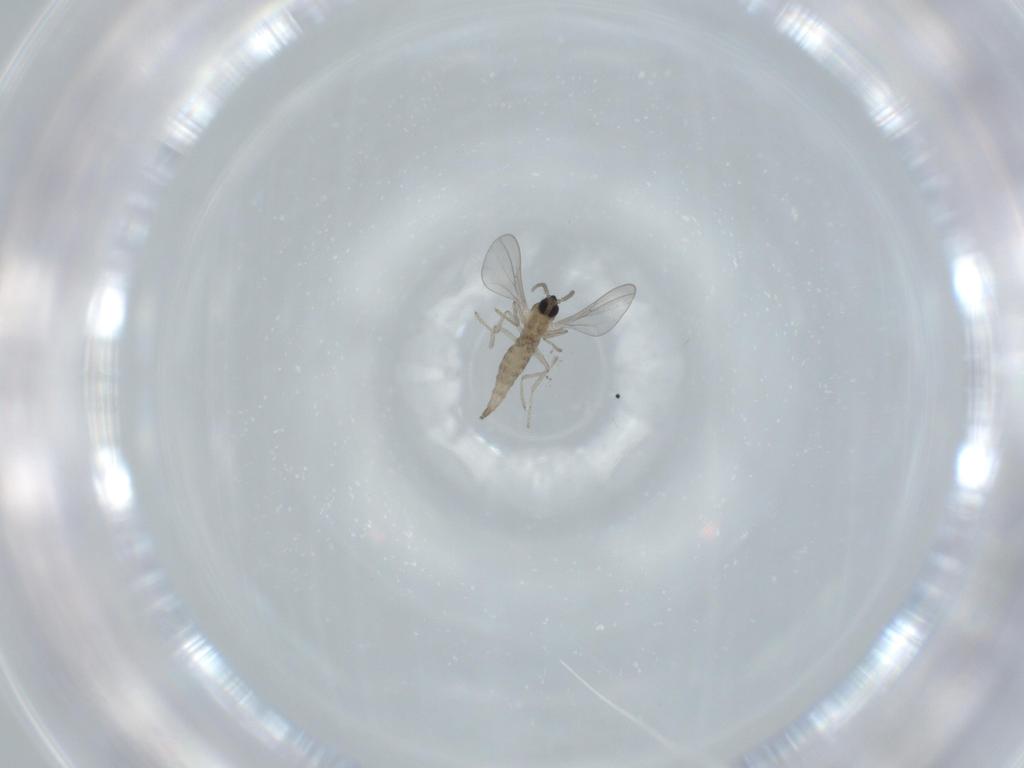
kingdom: Animalia
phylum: Arthropoda
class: Insecta
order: Diptera
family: Cecidomyiidae
